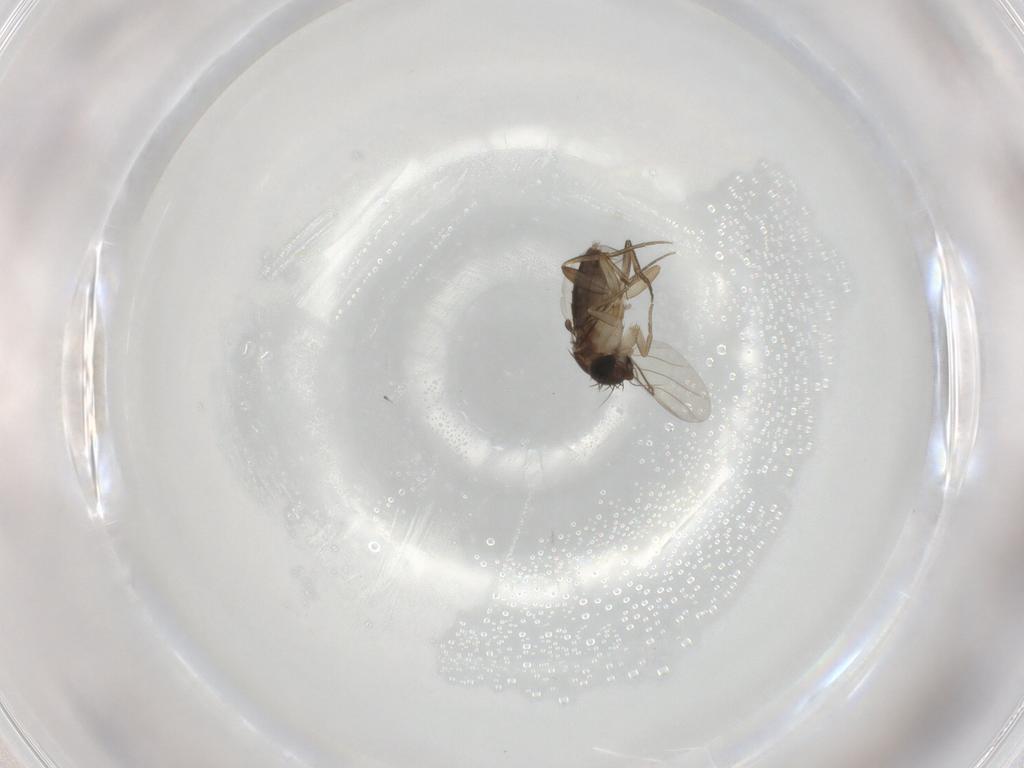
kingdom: Animalia
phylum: Arthropoda
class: Insecta
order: Diptera
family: Phoridae
